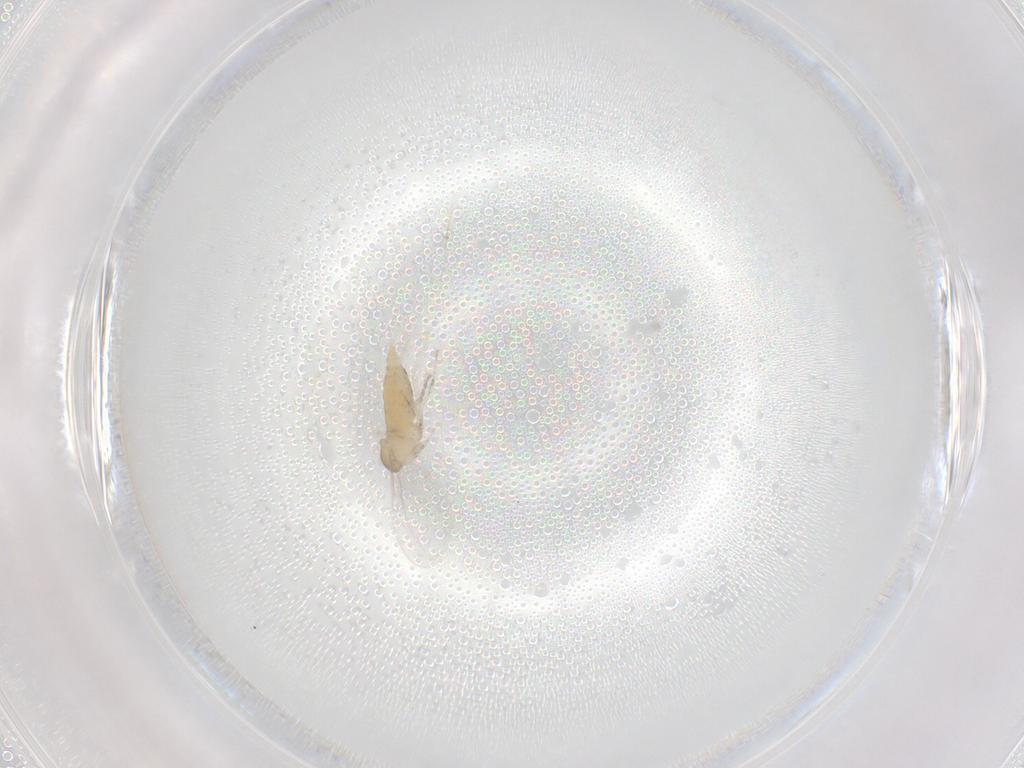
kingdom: Animalia
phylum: Arthropoda
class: Insecta
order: Diptera
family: Cecidomyiidae
